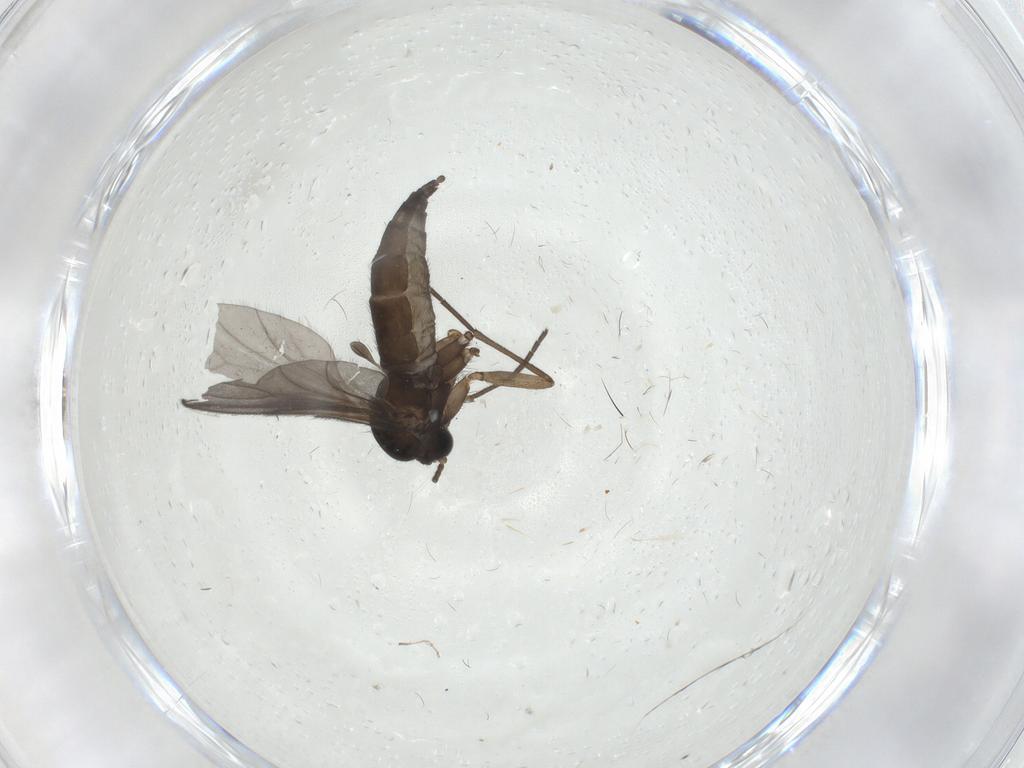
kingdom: Animalia
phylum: Arthropoda
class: Insecta
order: Diptera
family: Sciaridae
